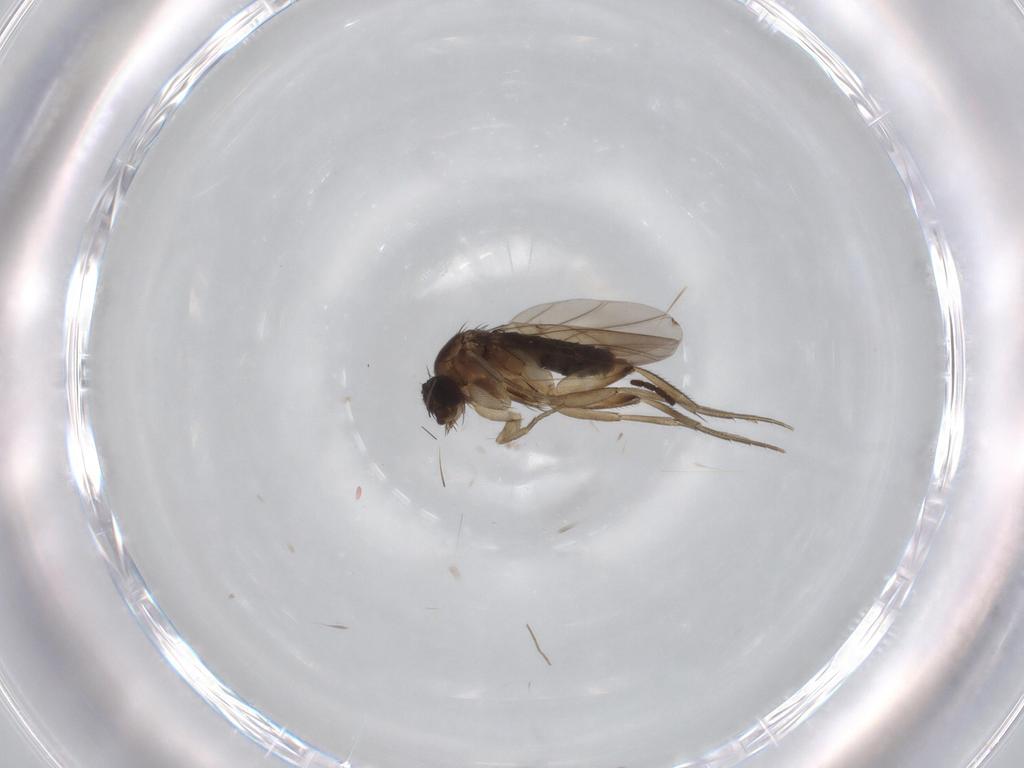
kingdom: Animalia
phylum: Arthropoda
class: Insecta
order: Diptera
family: Phoridae
